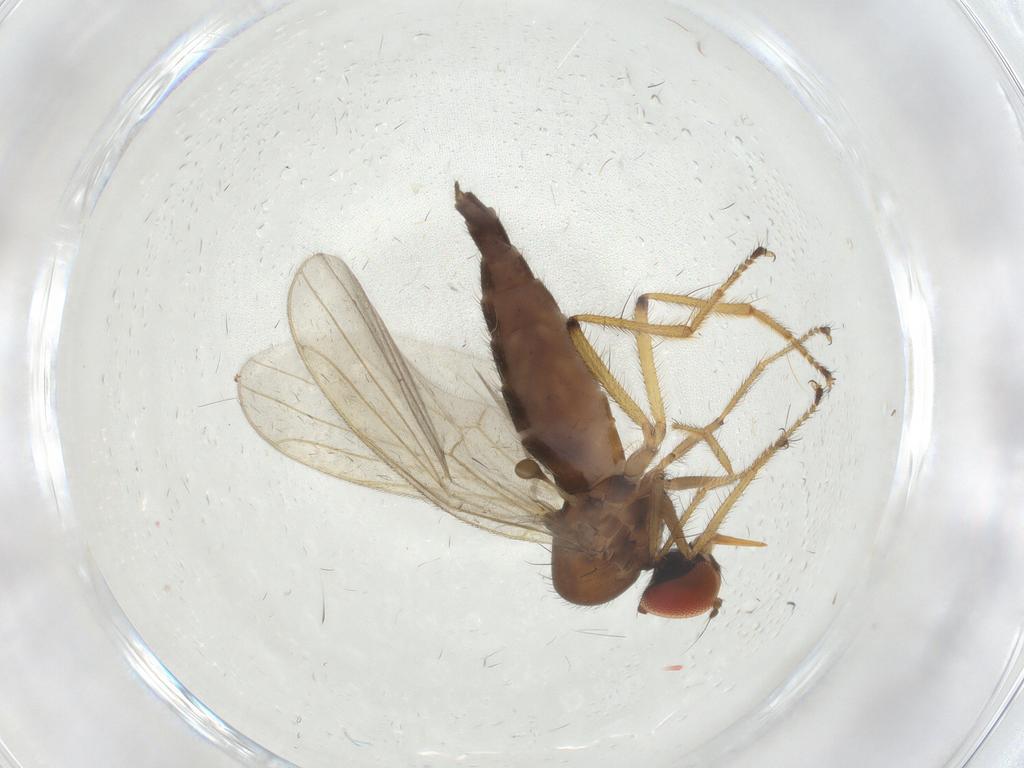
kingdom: Animalia
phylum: Arthropoda
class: Insecta
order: Diptera
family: Hybotidae
